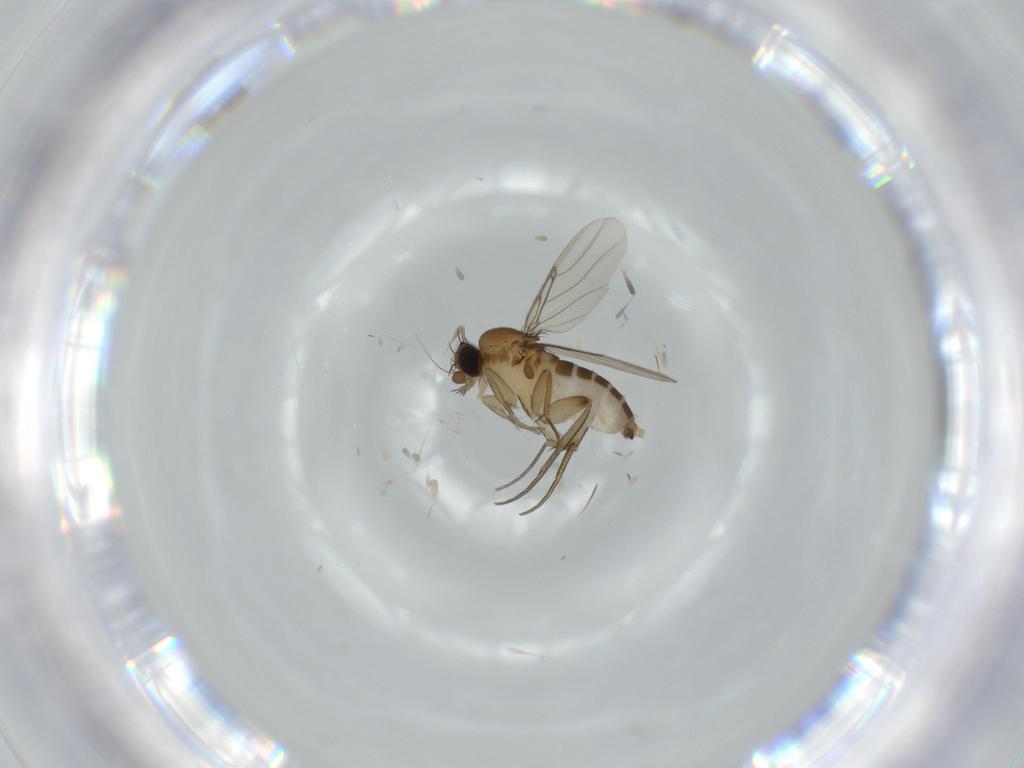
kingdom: Animalia
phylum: Arthropoda
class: Insecta
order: Diptera
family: Phoridae
